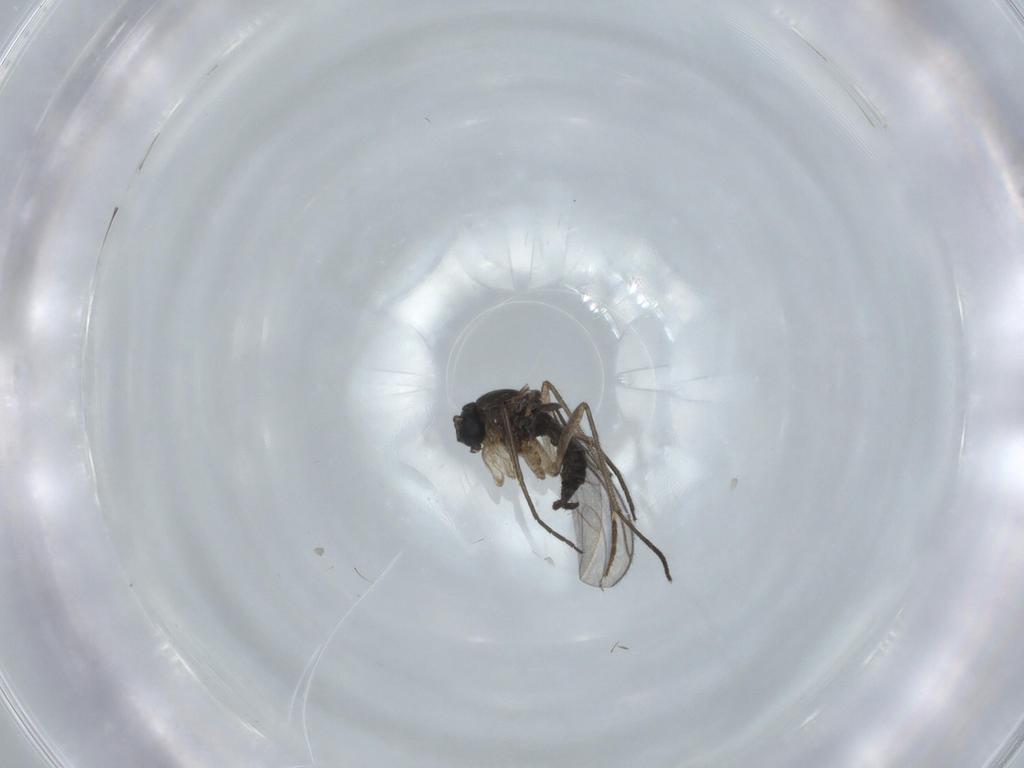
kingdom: Animalia
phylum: Arthropoda
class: Insecta
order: Diptera
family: Sciaridae
